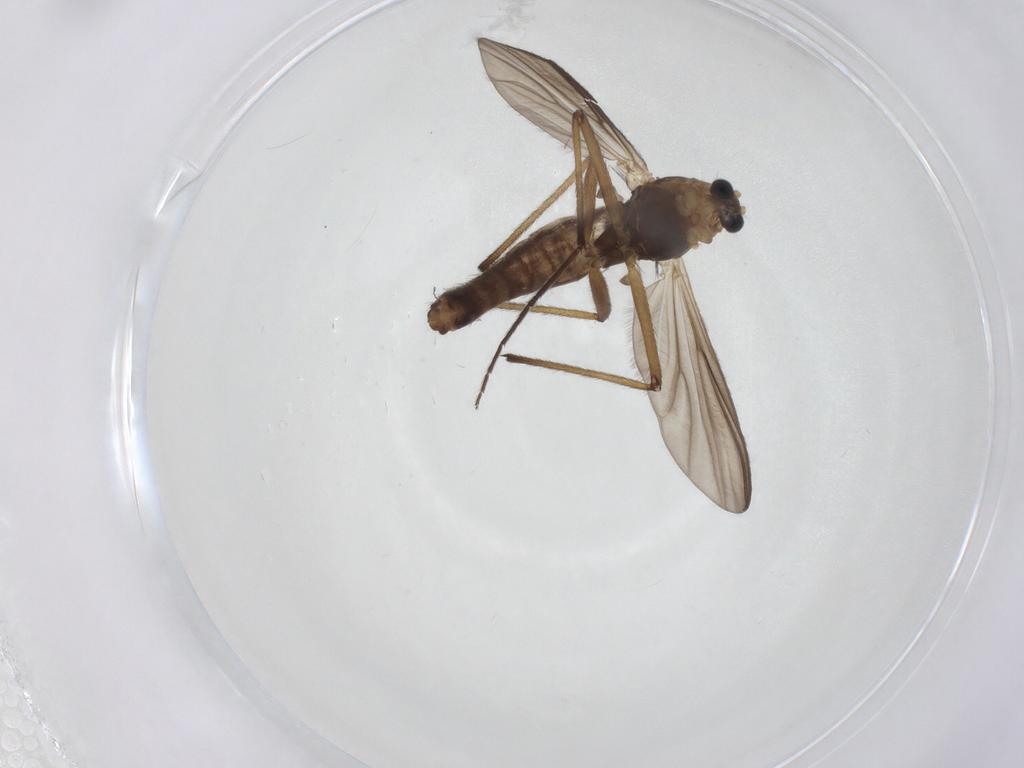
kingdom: Animalia
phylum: Arthropoda
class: Insecta
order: Diptera
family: Chironomidae
